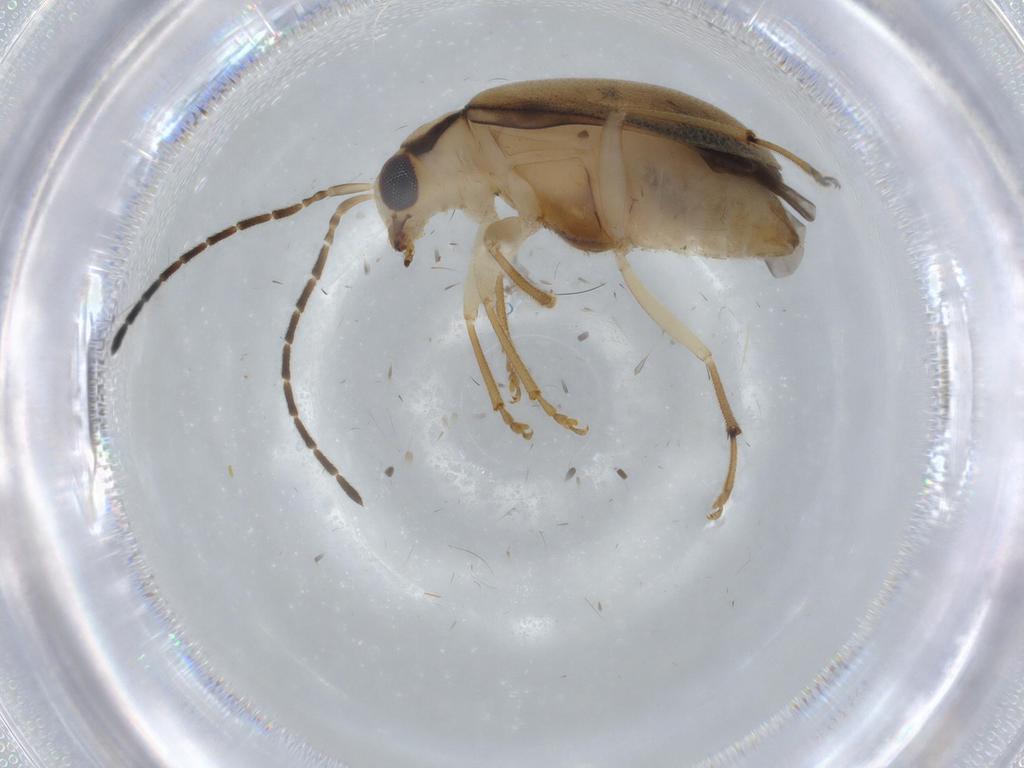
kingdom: Animalia
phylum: Arthropoda
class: Insecta
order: Coleoptera
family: Chrysomelidae
